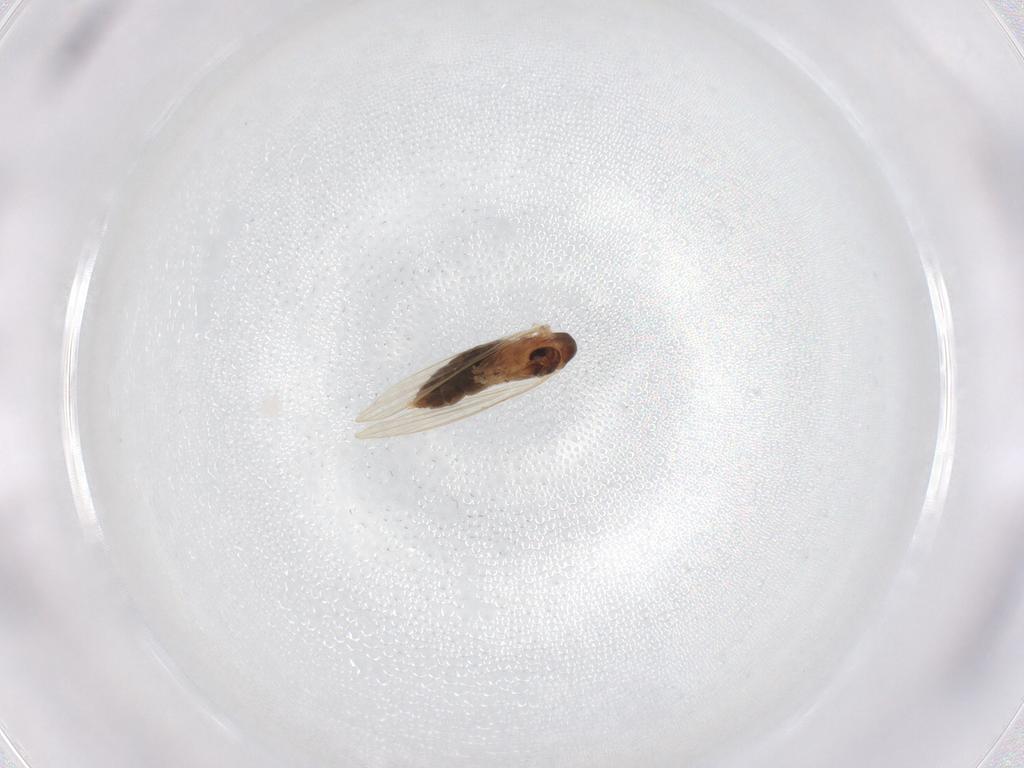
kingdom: Animalia
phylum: Arthropoda
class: Insecta
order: Diptera
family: Psychodidae
